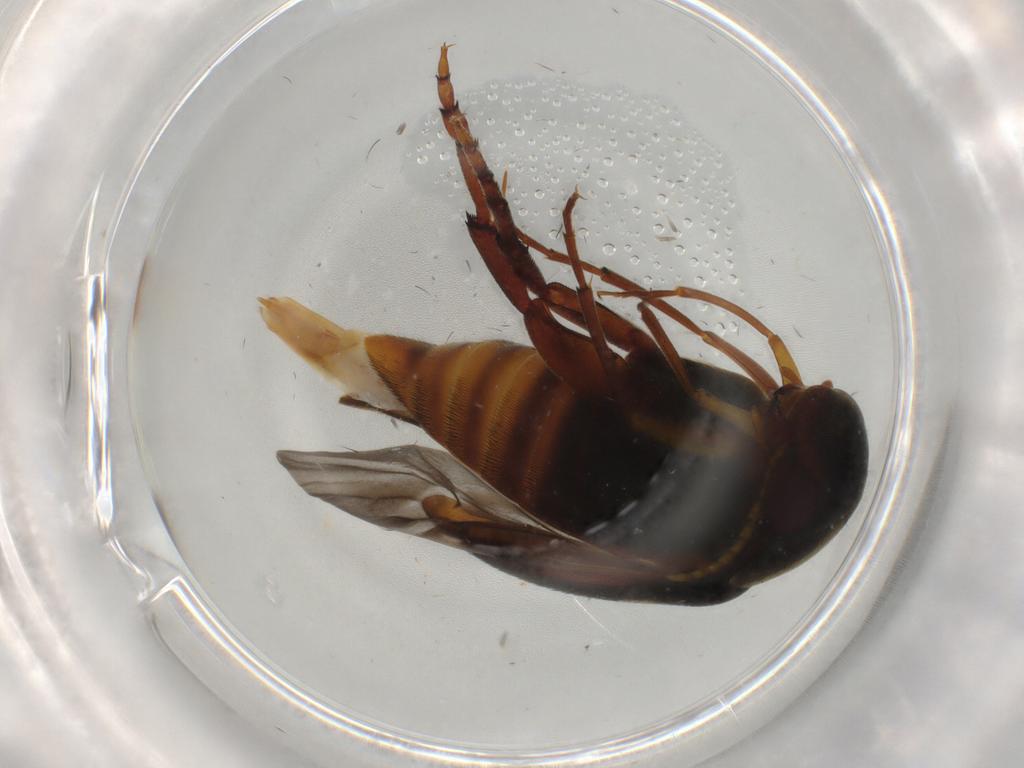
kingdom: Animalia
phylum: Arthropoda
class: Insecta
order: Coleoptera
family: Mordellidae
